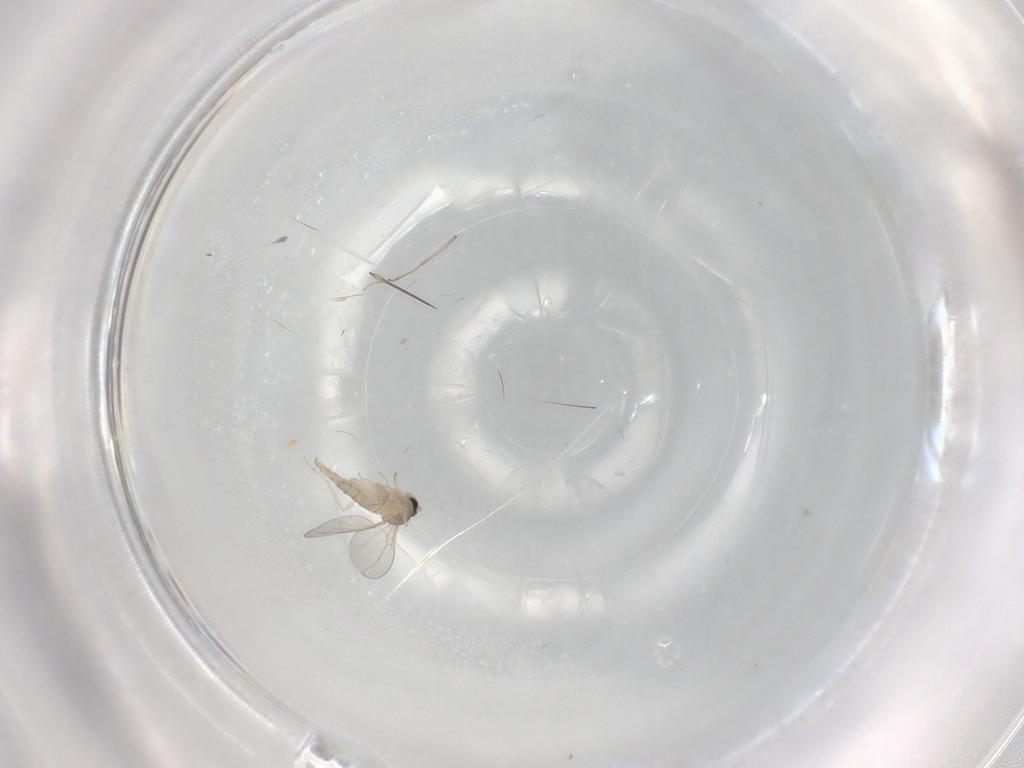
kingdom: Animalia
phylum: Arthropoda
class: Insecta
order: Diptera
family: Cecidomyiidae
